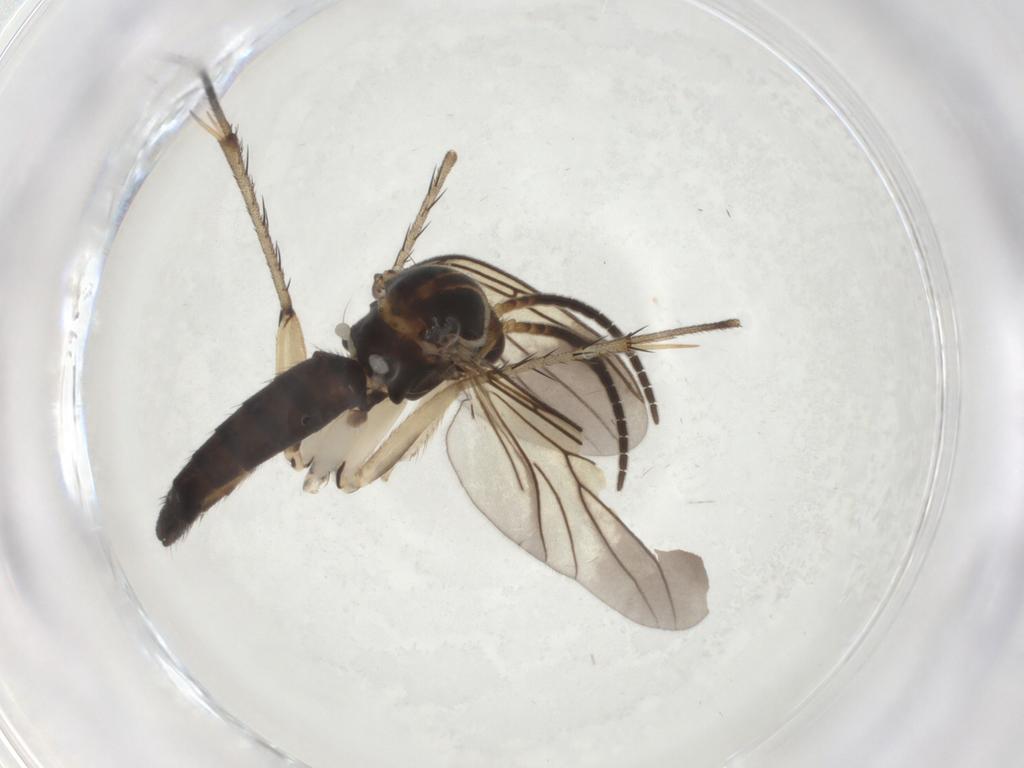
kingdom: Animalia
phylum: Arthropoda
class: Insecta
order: Diptera
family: Mycetophilidae
